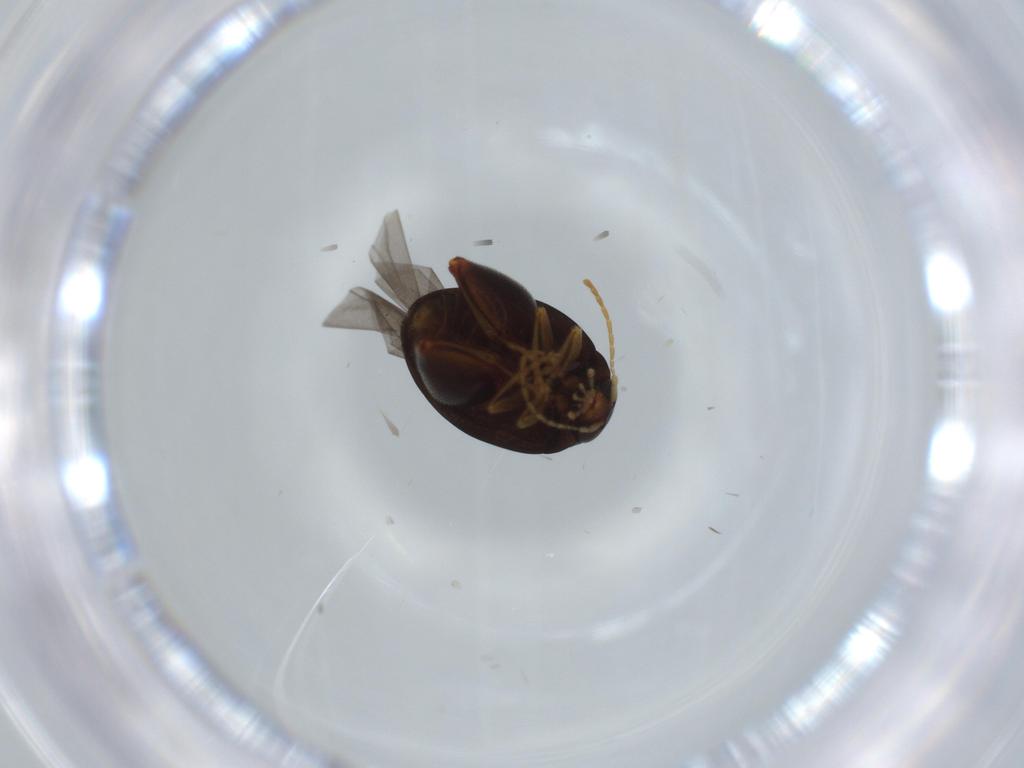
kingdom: Animalia
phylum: Arthropoda
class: Insecta
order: Coleoptera
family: Chrysomelidae
